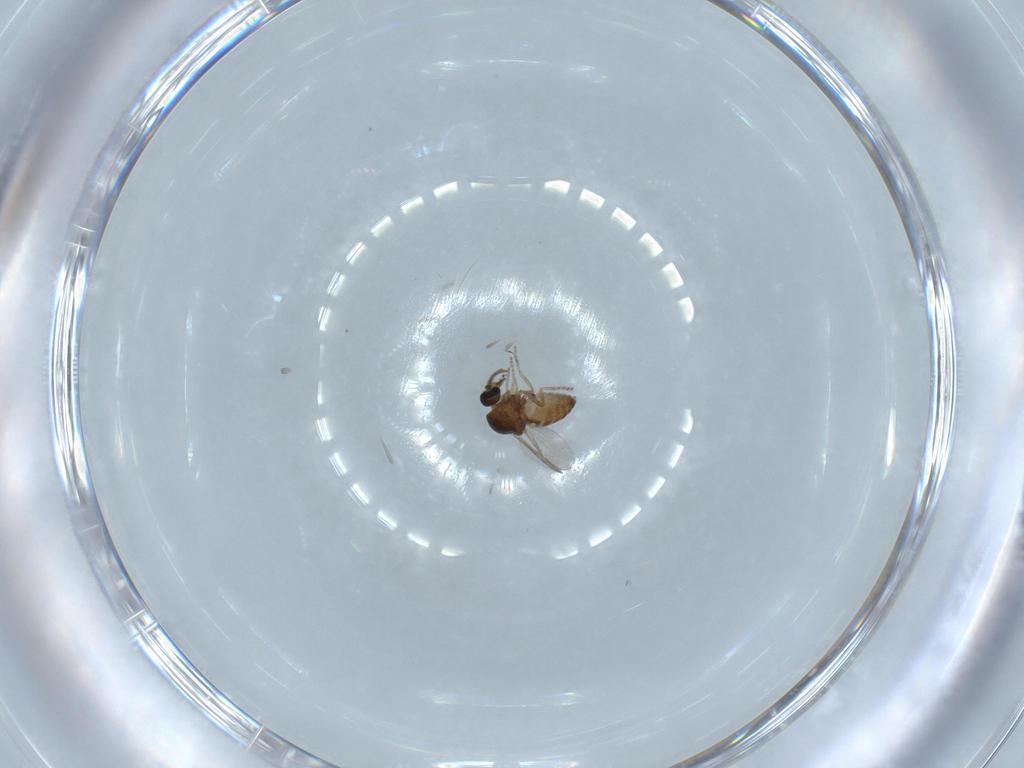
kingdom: Animalia
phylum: Arthropoda
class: Insecta
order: Diptera
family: Ceratopogonidae
